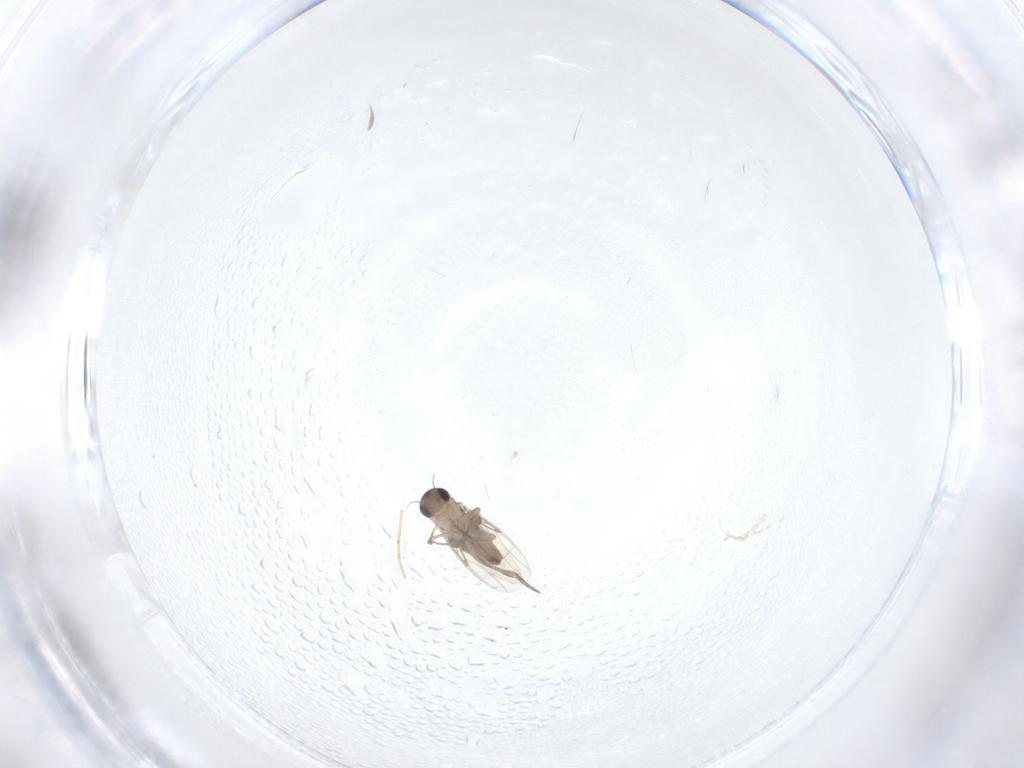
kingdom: Animalia
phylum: Arthropoda
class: Insecta
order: Diptera
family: Phoridae
